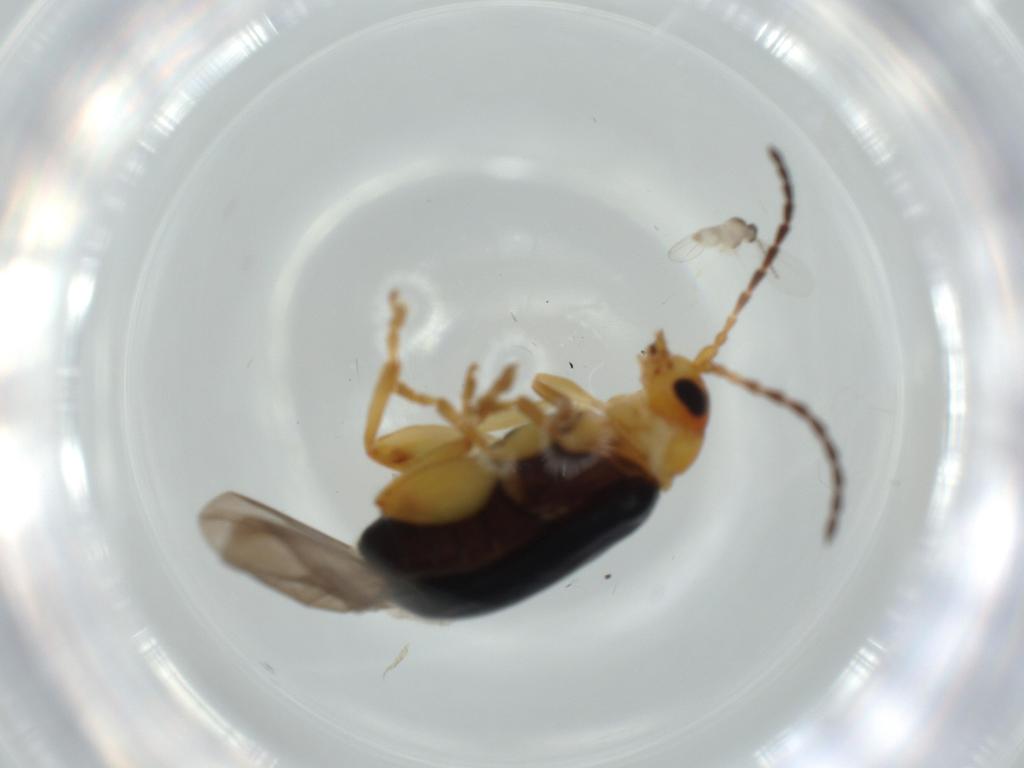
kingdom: Animalia
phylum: Arthropoda
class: Insecta
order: Coleoptera
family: Chrysomelidae
